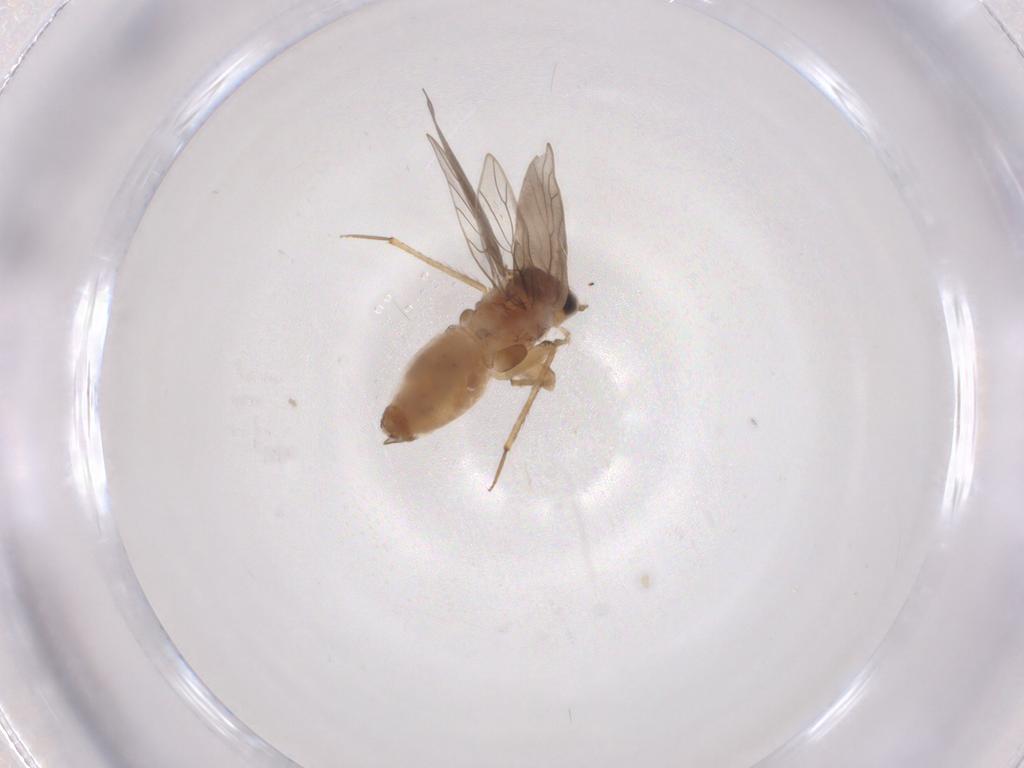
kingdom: Animalia
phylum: Arthropoda
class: Insecta
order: Psocodea
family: Lepidopsocidae
